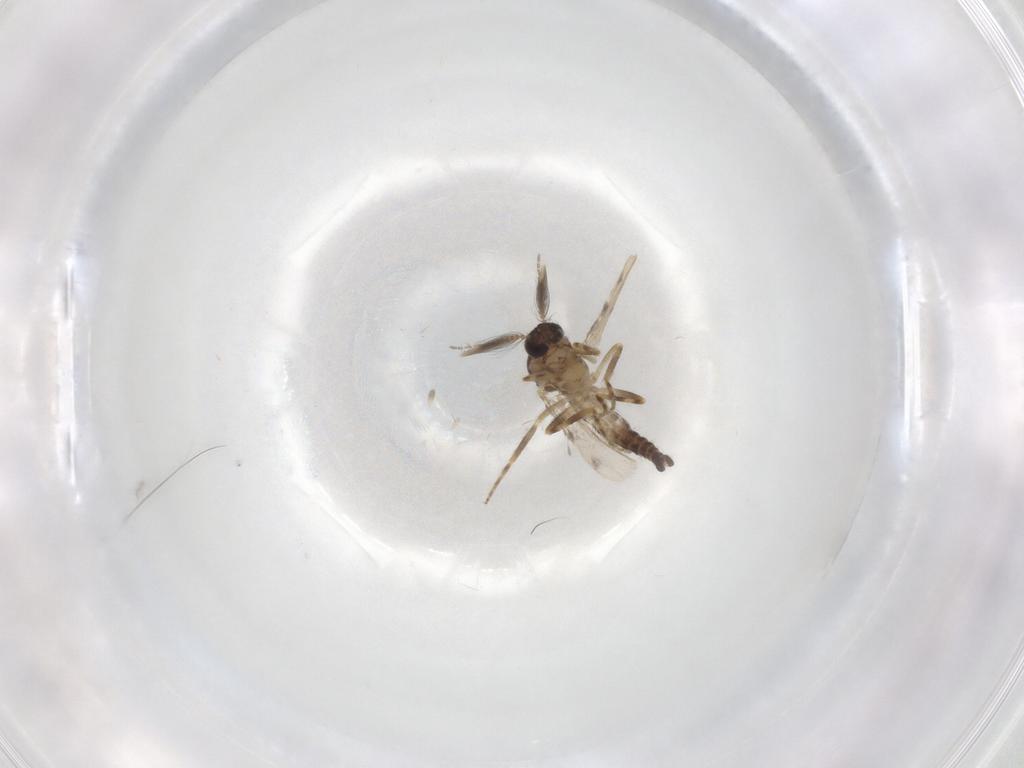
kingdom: Animalia
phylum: Arthropoda
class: Insecta
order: Diptera
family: Ceratopogonidae
